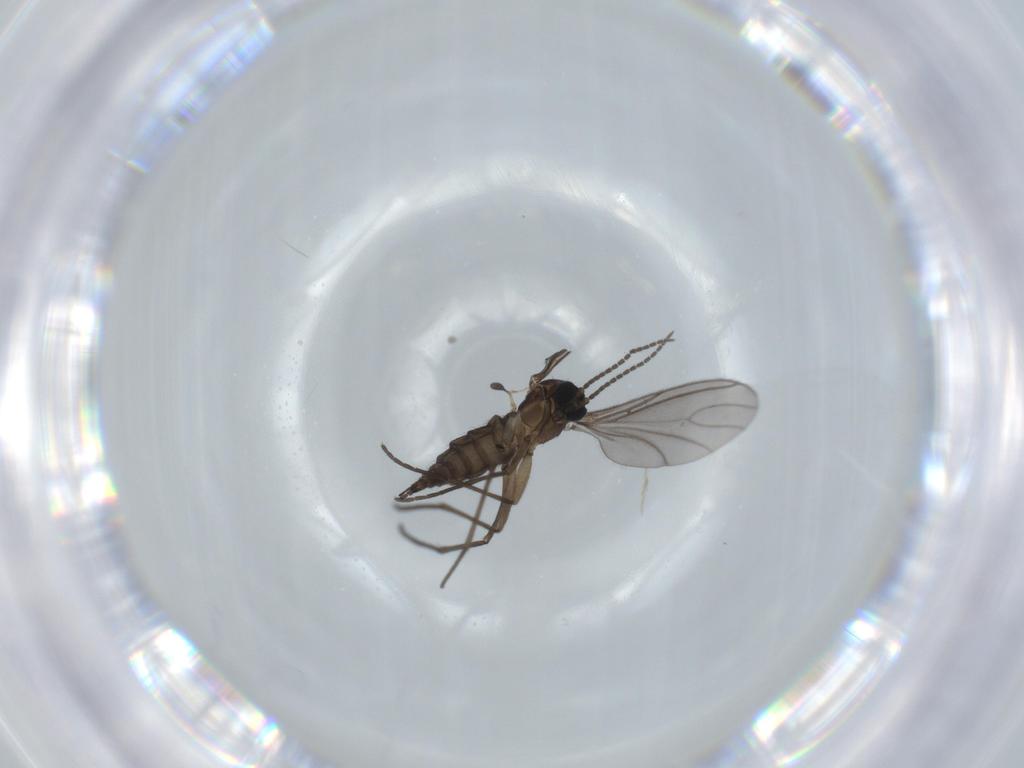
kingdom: Animalia
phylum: Arthropoda
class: Insecta
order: Diptera
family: Sciaridae
